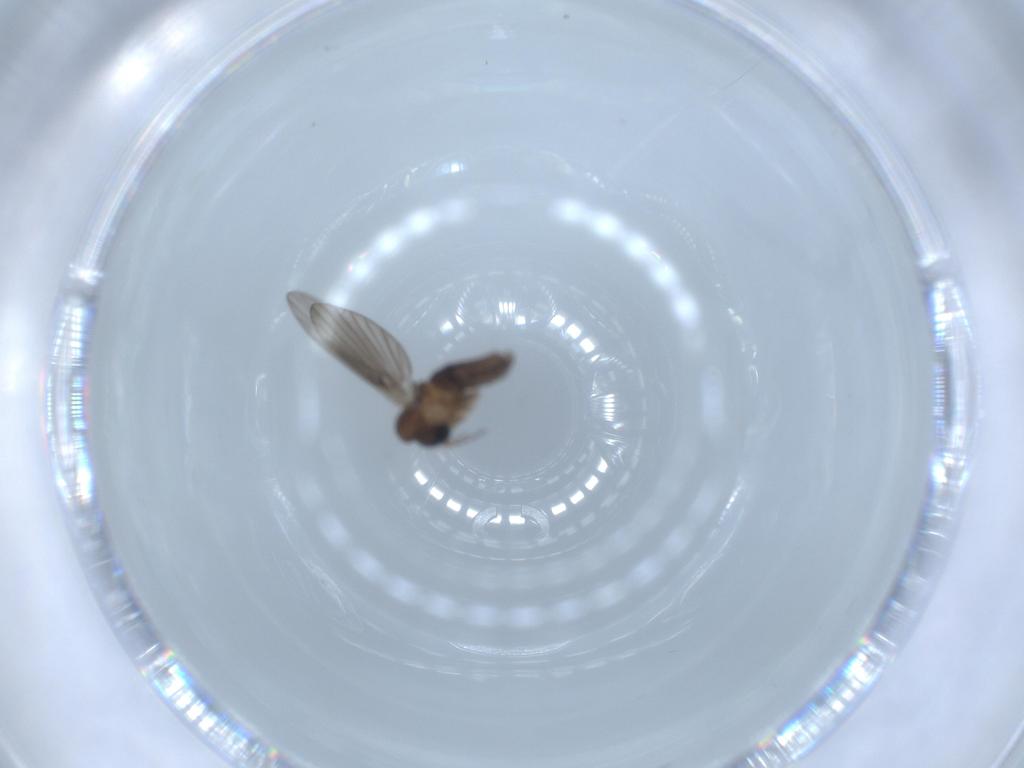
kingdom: Animalia
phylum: Arthropoda
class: Insecta
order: Diptera
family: Psychodidae
